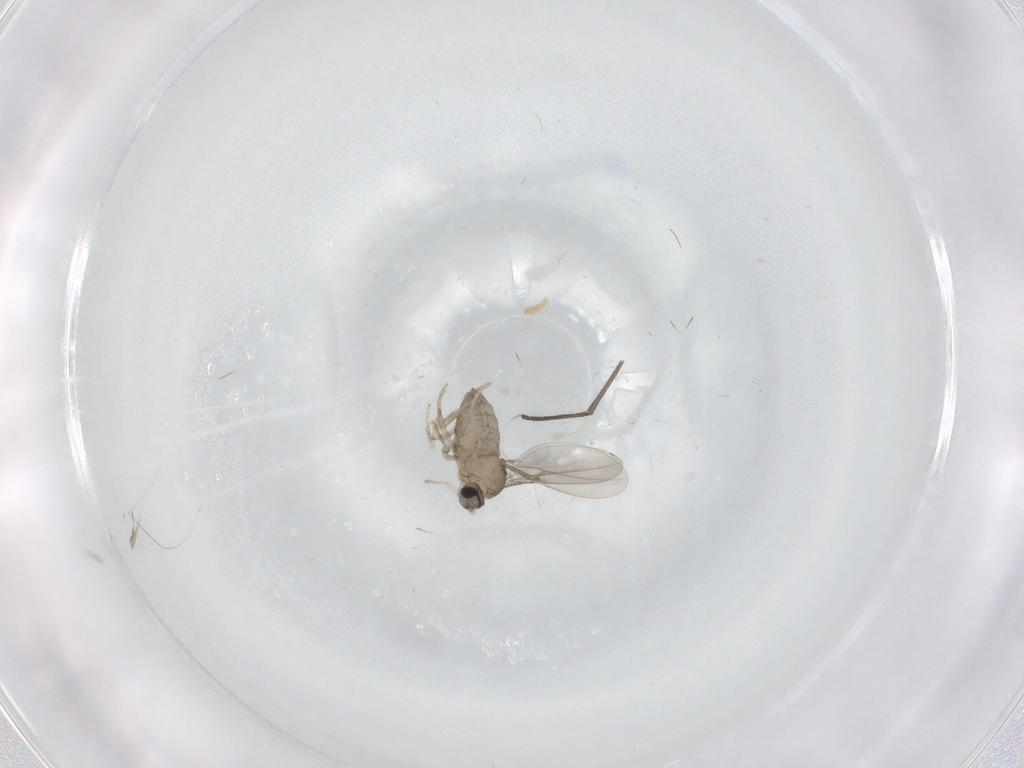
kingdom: Animalia
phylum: Arthropoda
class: Insecta
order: Diptera
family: Cecidomyiidae
